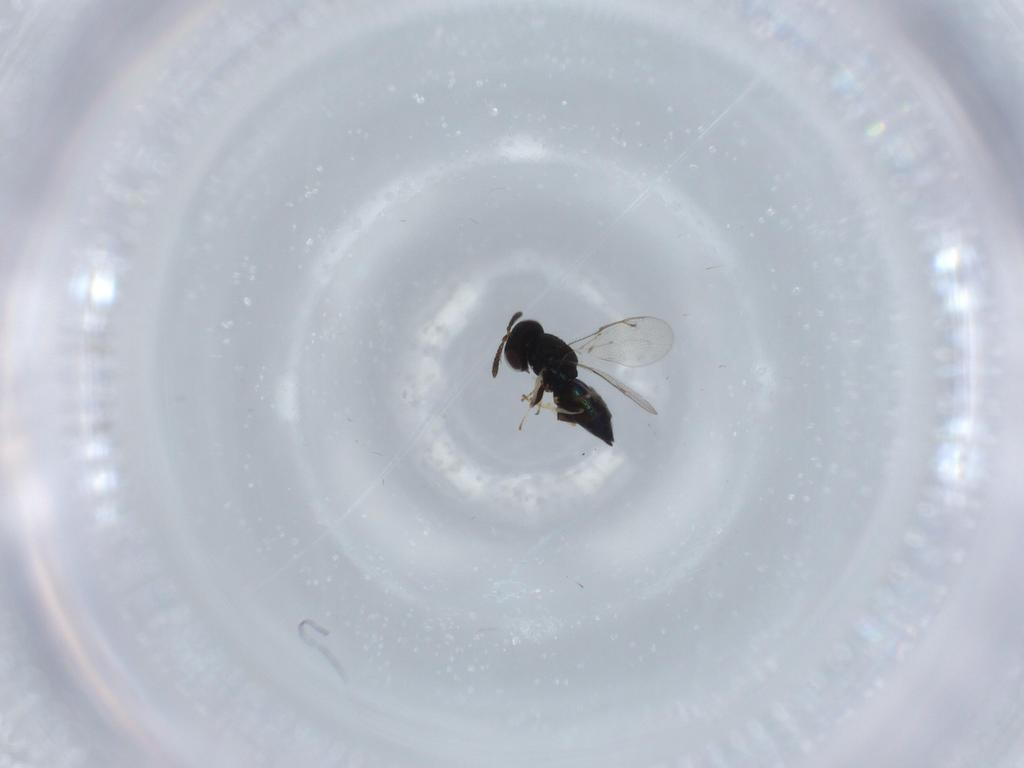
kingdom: Animalia
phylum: Arthropoda
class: Insecta
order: Hymenoptera
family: Pteromalidae
